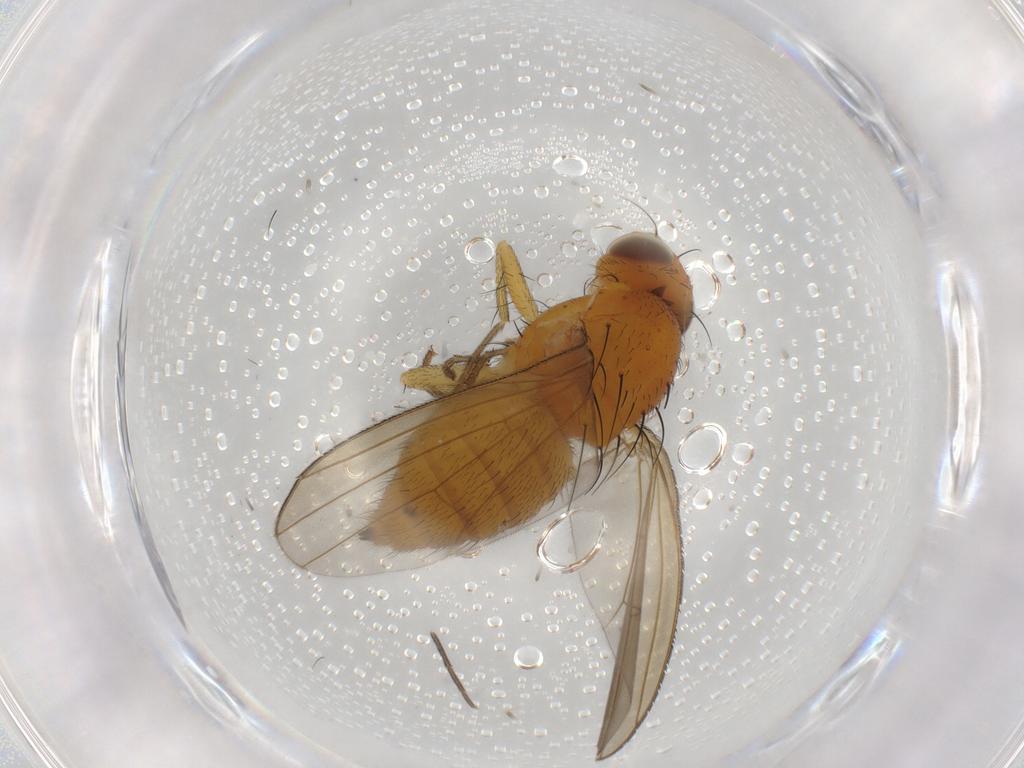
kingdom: Animalia
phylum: Arthropoda
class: Insecta
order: Diptera
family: Mycetophilidae
